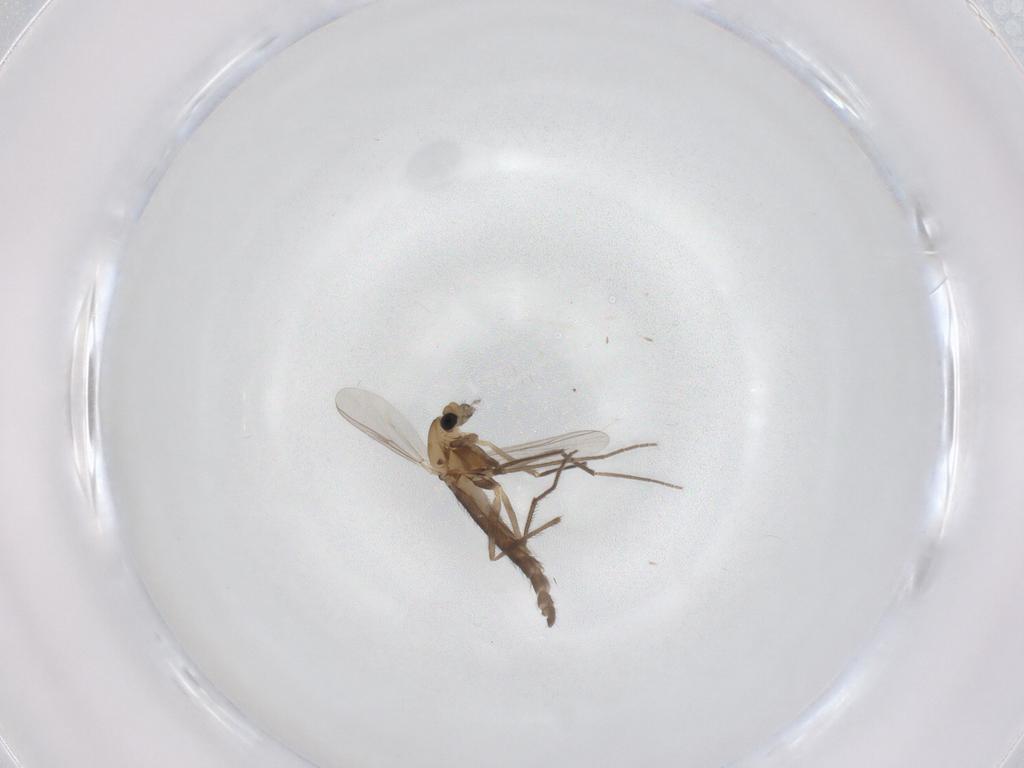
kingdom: Animalia
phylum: Arthropoda
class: Insecta
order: Diptera
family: Chironomidae
